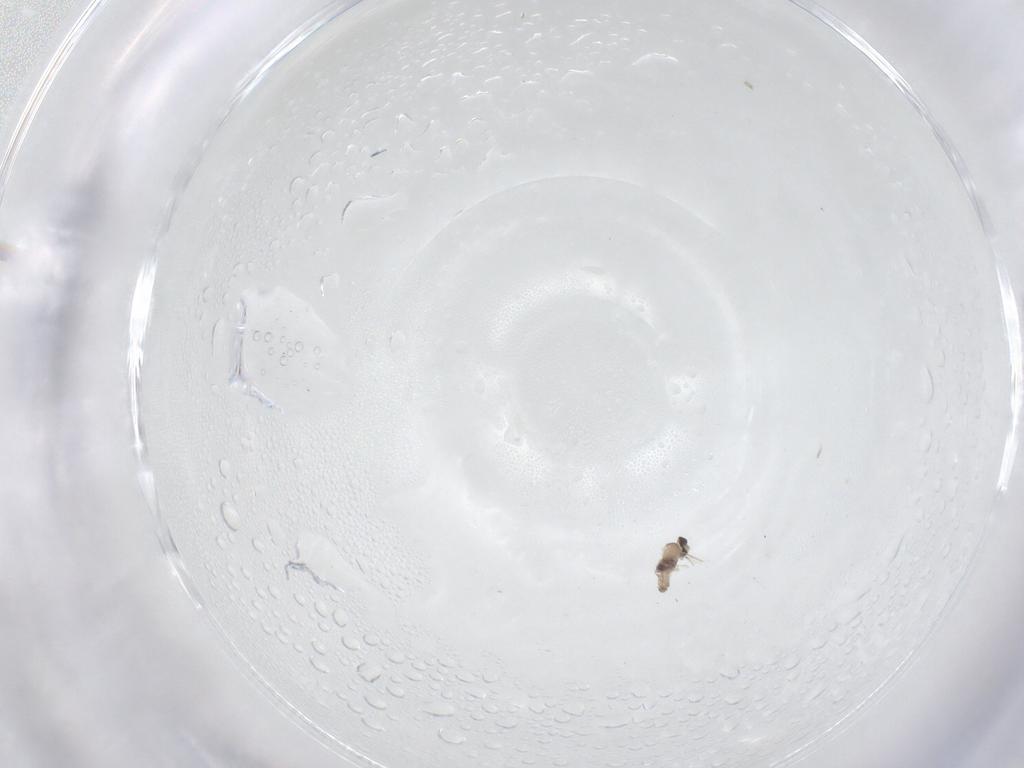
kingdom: Animalia
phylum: Arthropoda
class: Insecta
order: Diptera
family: Cecidomyiidae
